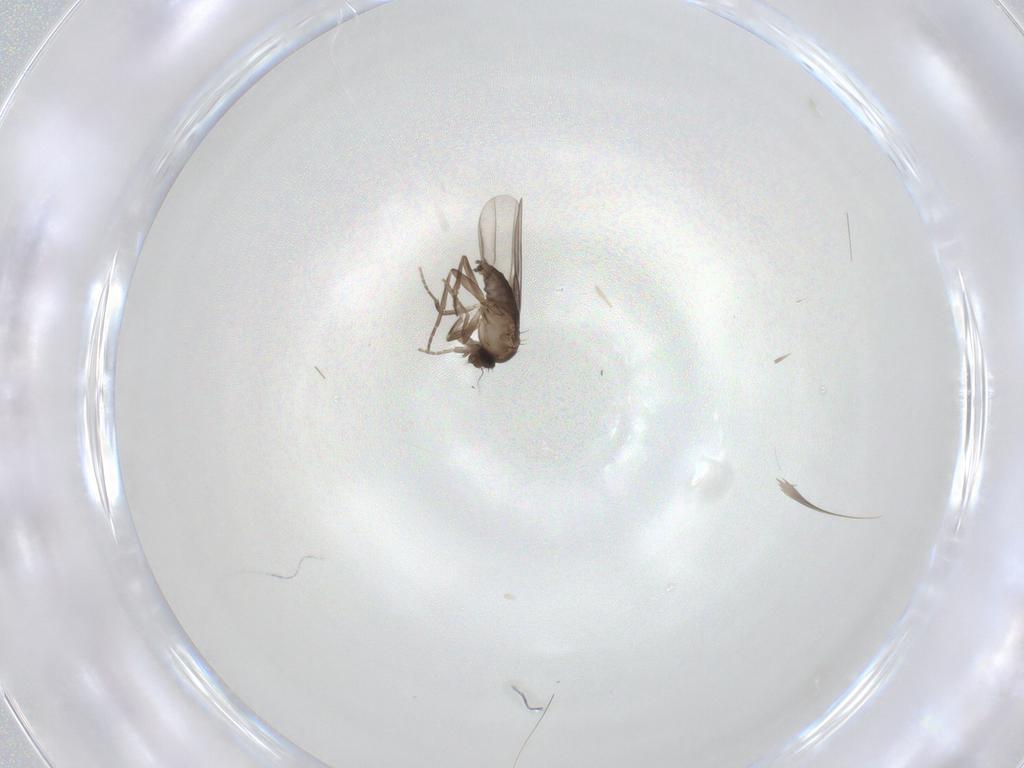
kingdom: Animalia
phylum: Arthropoda
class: Insecta
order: Diptera
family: Phoridae
